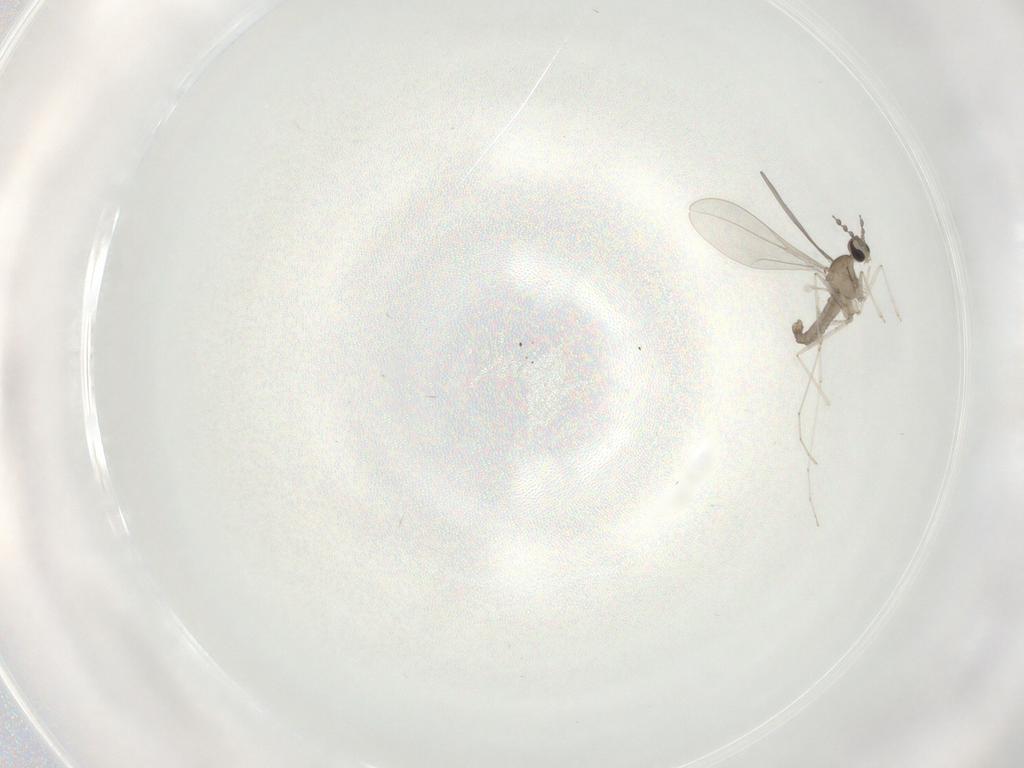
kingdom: Animalia
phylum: Arthropoda
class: Insecta
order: Diptera
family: Cecidomyiidae
